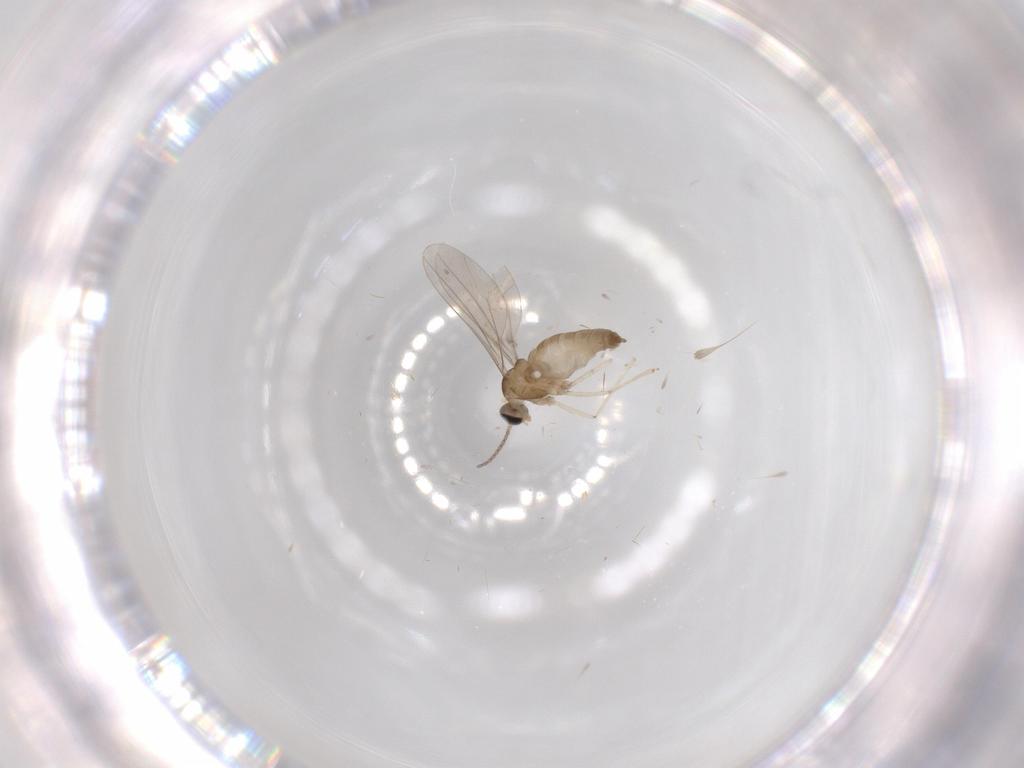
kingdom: Animalia
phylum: Arthropoda
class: Insecta
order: Diptera
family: Cecidomyiidae
